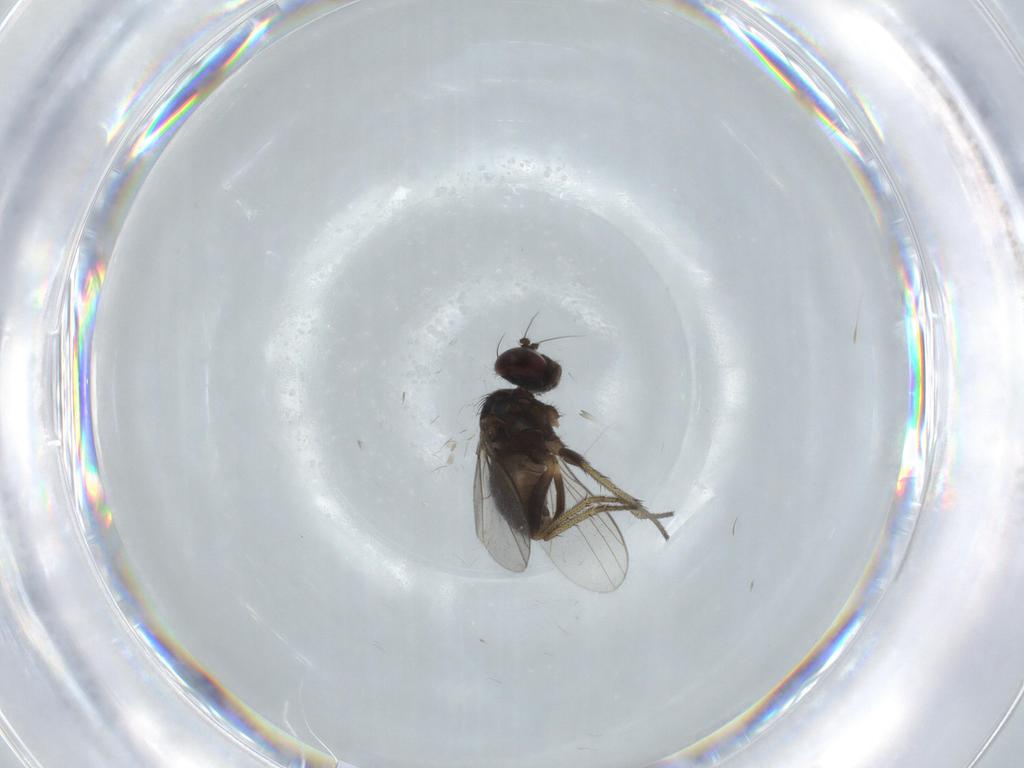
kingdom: Animalia
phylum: Arthropoda
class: Insecta
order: Diptera
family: Dolichopodidae
